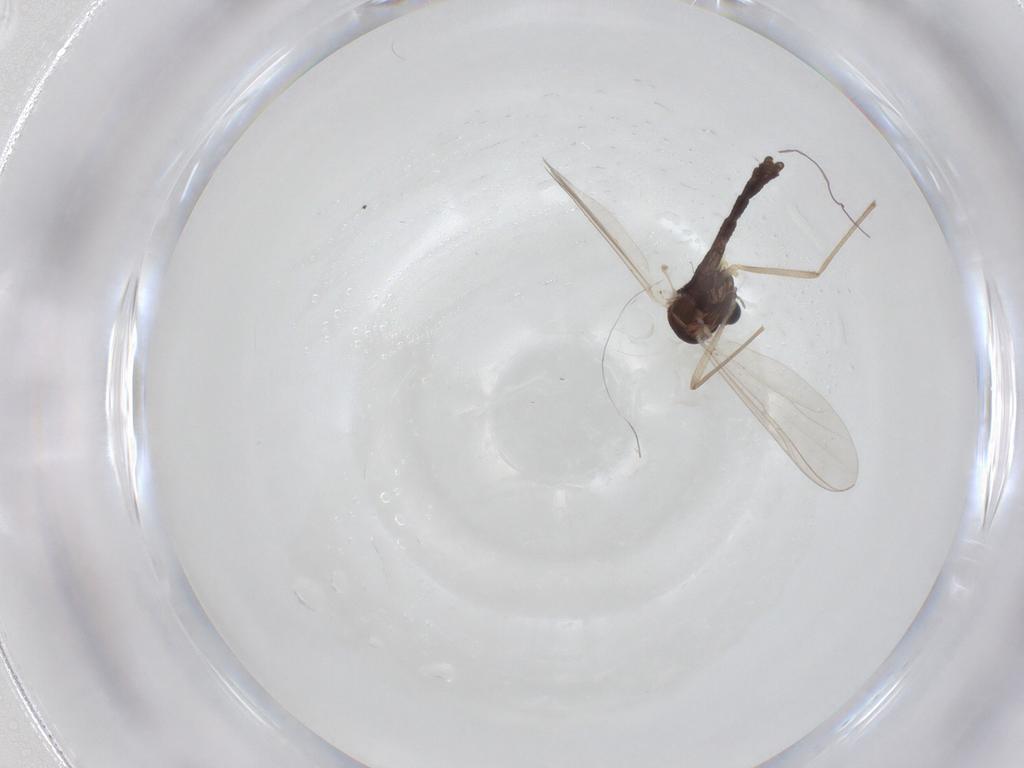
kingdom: Animalia
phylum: Arthropoda
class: Insecta
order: Diptera
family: Chironomidae
